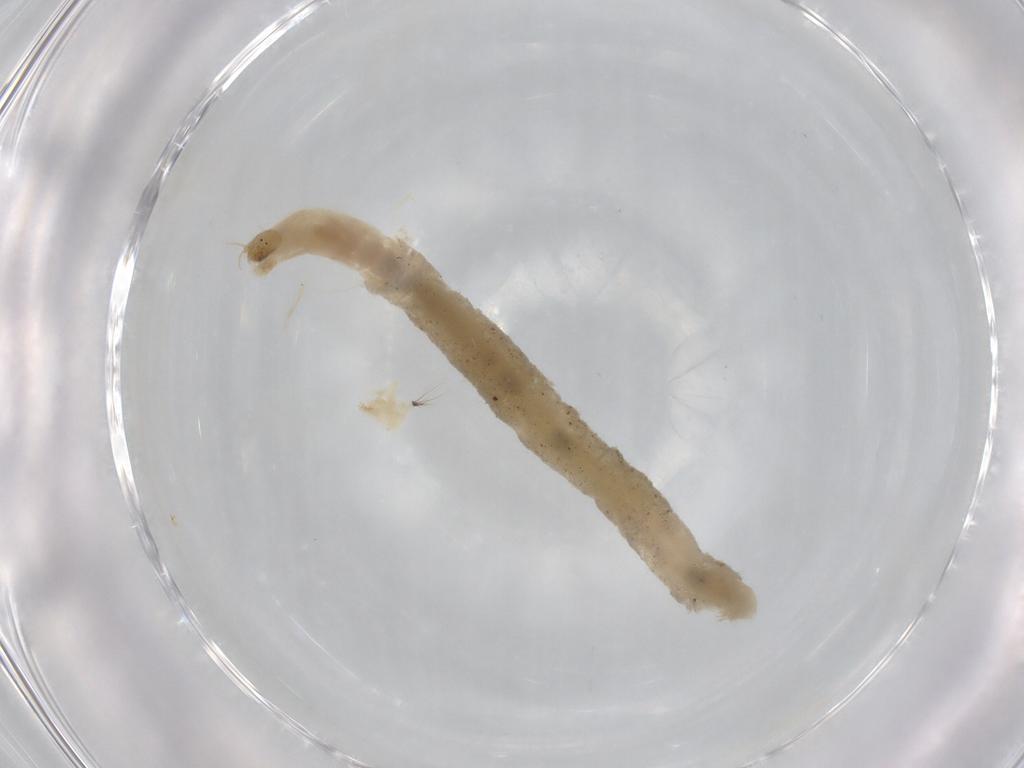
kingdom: Animalia
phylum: Arthropoda
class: Insecta
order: Diptera
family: Chironomidae
